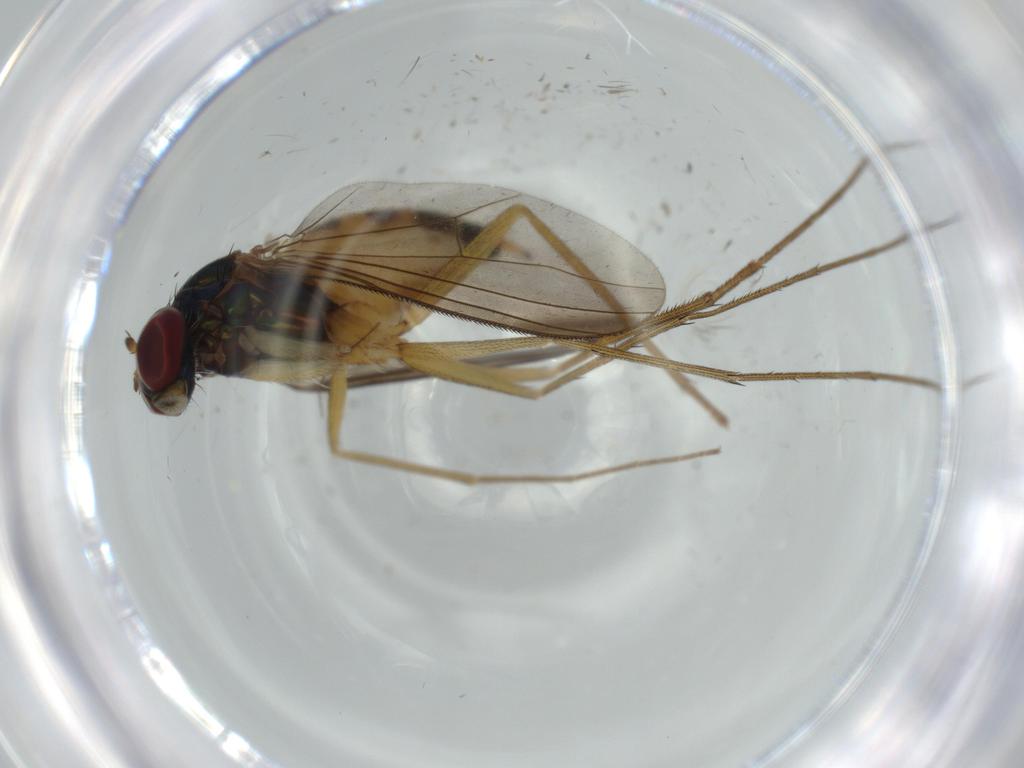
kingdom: Animalia
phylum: Arthropoda
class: Insecta
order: Diptera
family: Dolichopodidae
